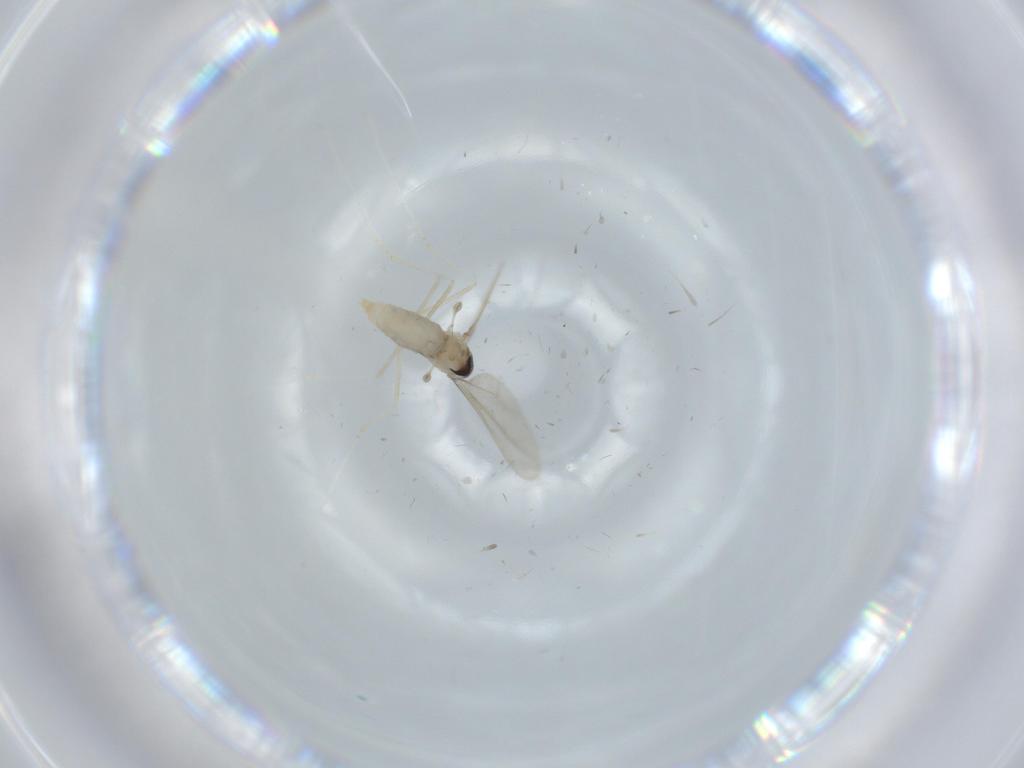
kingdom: Animalia
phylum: Arthropoda
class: Insecta
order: Diptera
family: Cecidomyiidae
